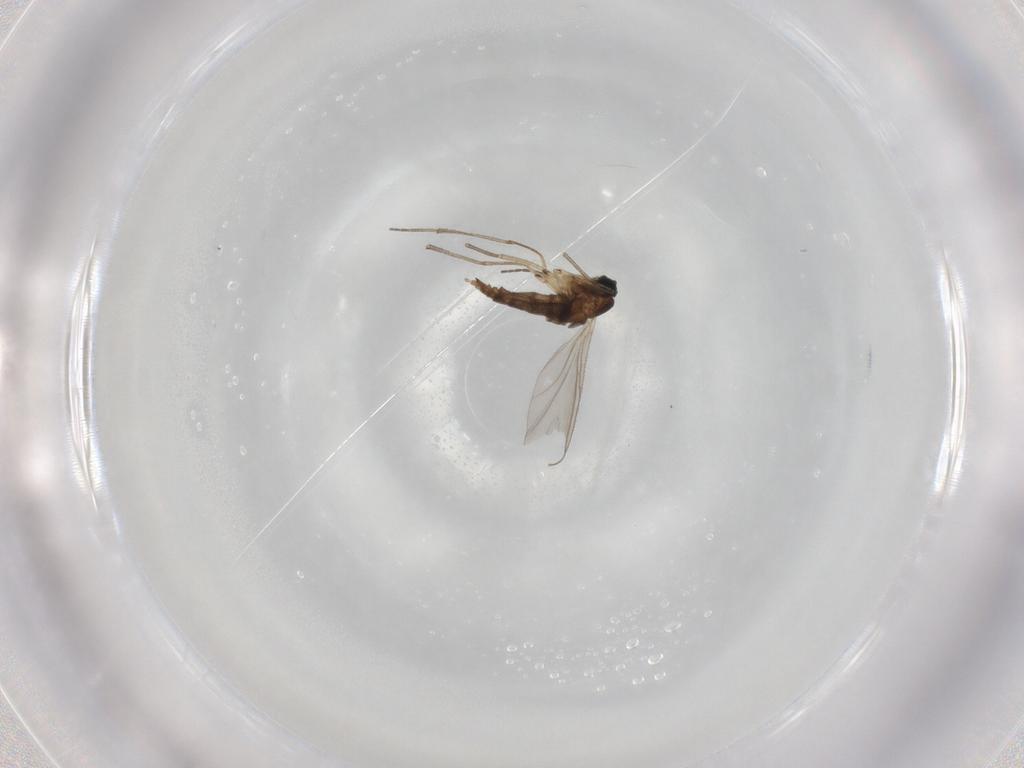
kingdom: Animalia
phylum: Arthropoda
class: Insecta
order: Diptera
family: Sciaridae
